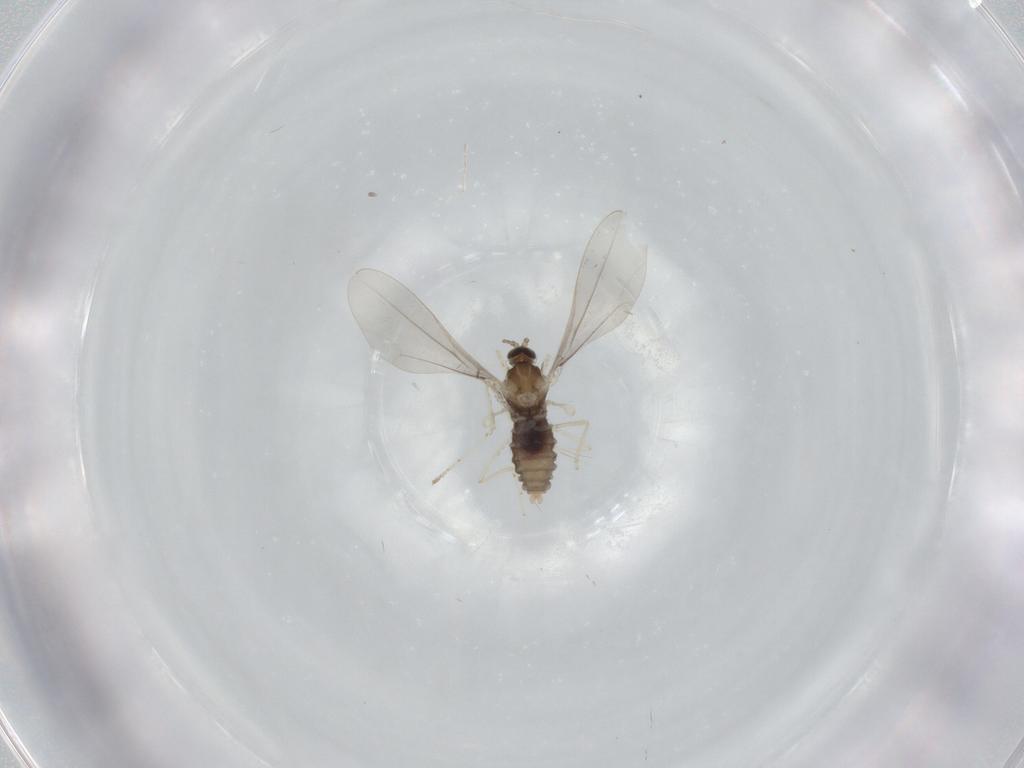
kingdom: Animalia
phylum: Arthropoda
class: Insecta
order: Diptera
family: Cecidomyiidae
